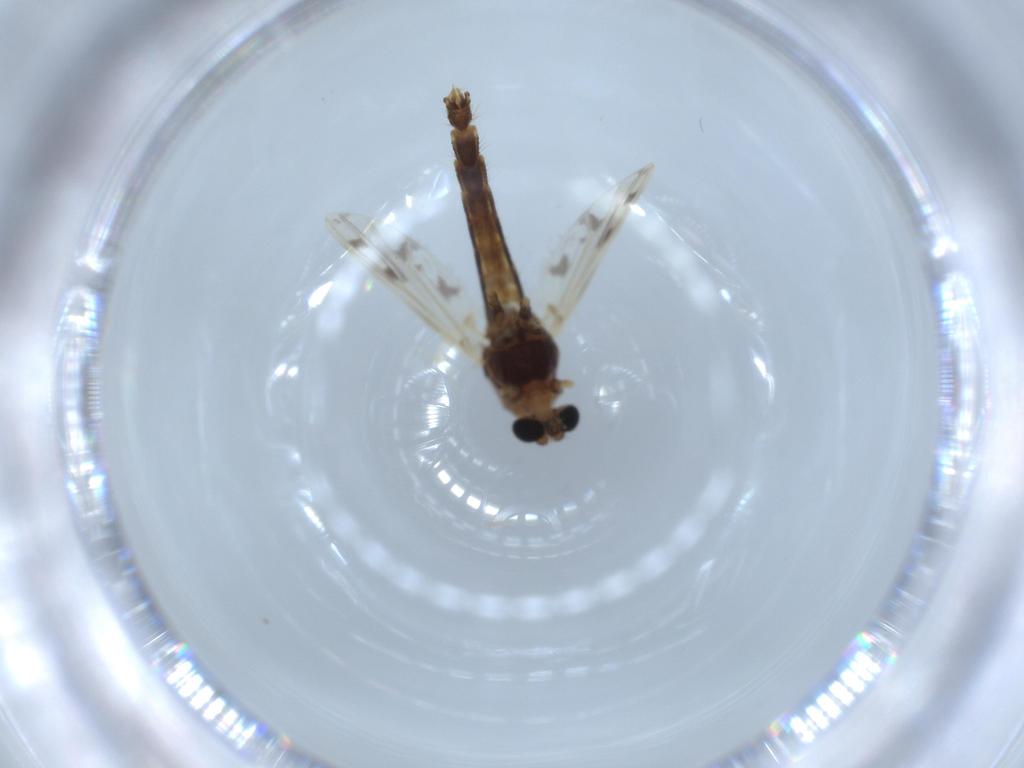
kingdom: Animalia
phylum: Arthropoda
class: Insecta
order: Diptera
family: Chironomidae
